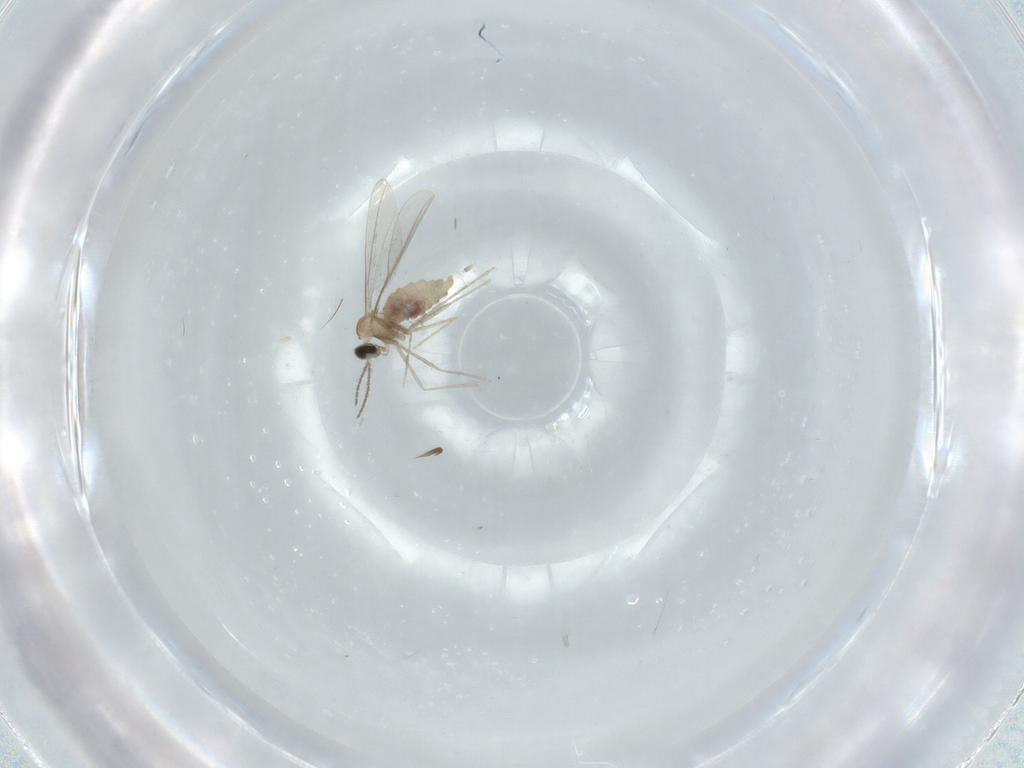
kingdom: Animalia
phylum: Arthropoda
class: Insecta
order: Diptera
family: Cecidomyiidae
